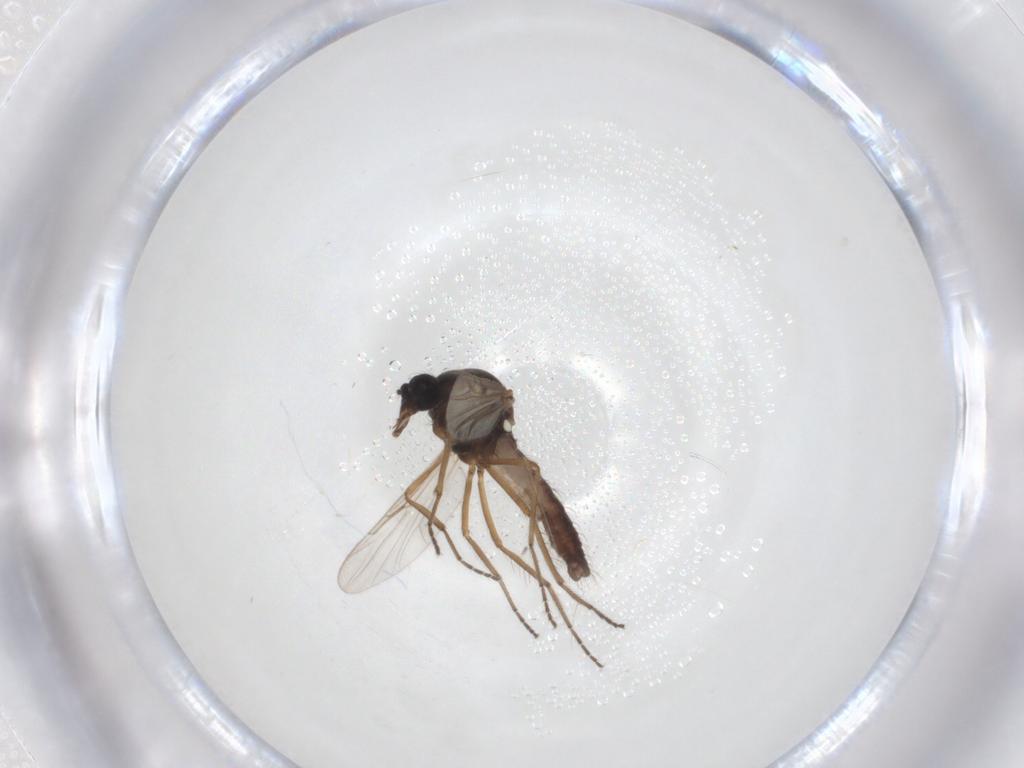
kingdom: Animalia
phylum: Arthropoda
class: Insecta
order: Diptera
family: Ceratopogonidae
